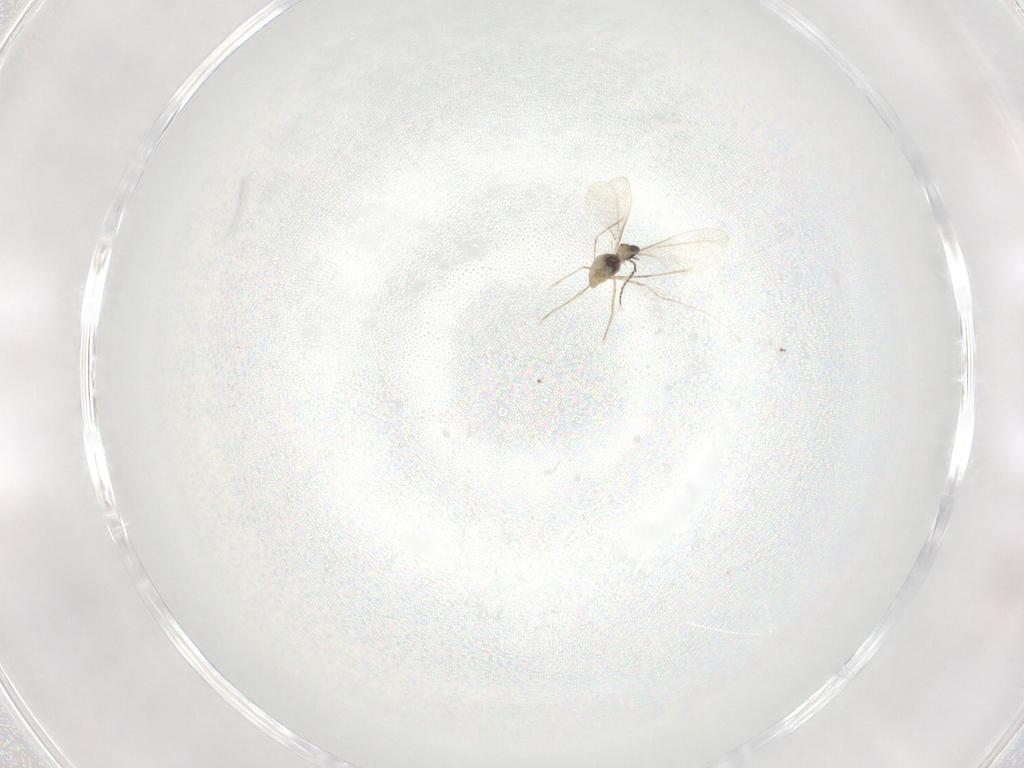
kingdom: Animalia
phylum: Arthropoda
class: Insecta
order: Diptera
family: Cecidomyiidae
